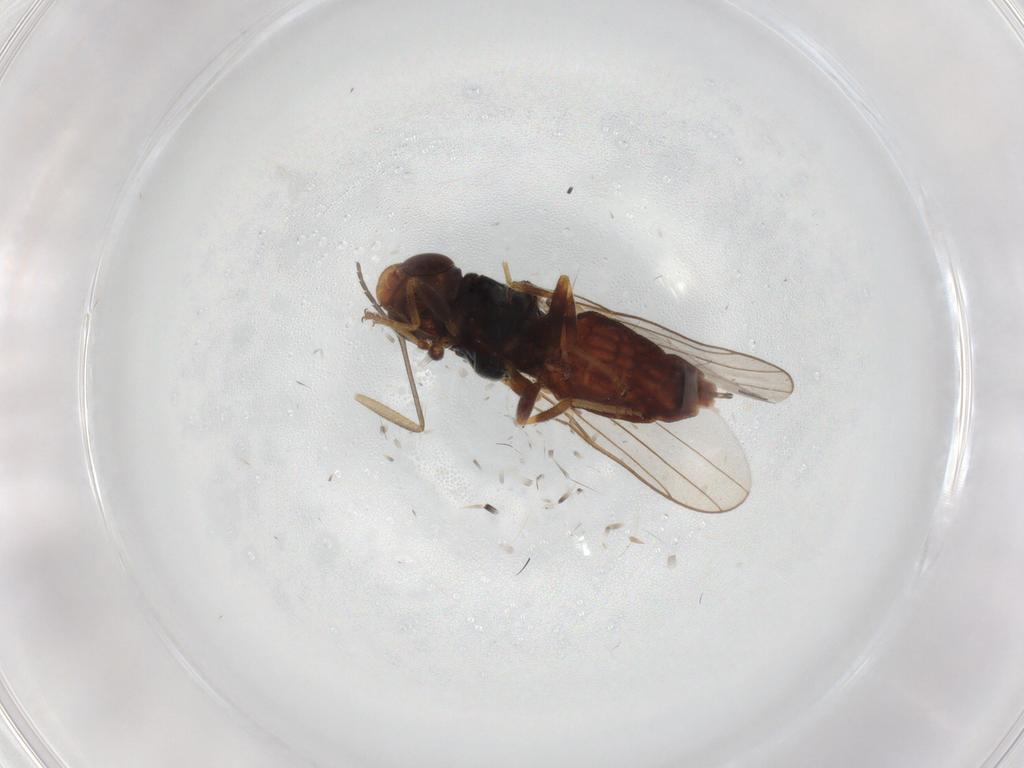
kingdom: Animalia
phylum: Arthropoda
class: Insecta
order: Diptera
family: Chloropidae
